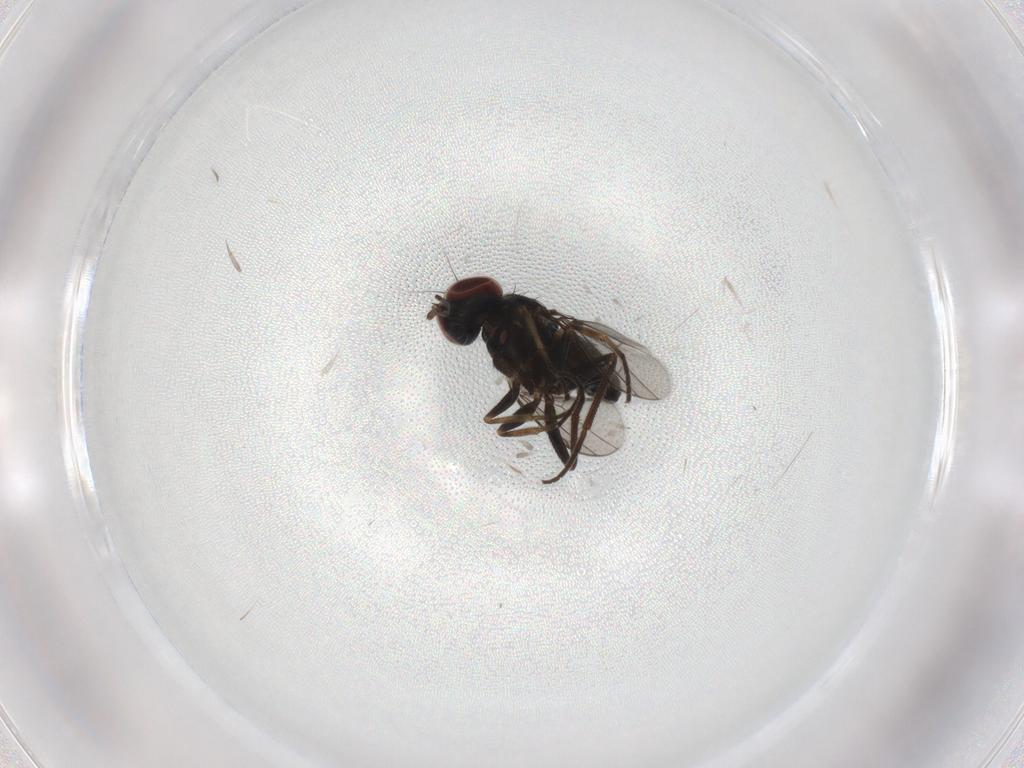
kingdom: Animalia
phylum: Arthropoda
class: Insecta
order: Diptera
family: Dolichopodidae
